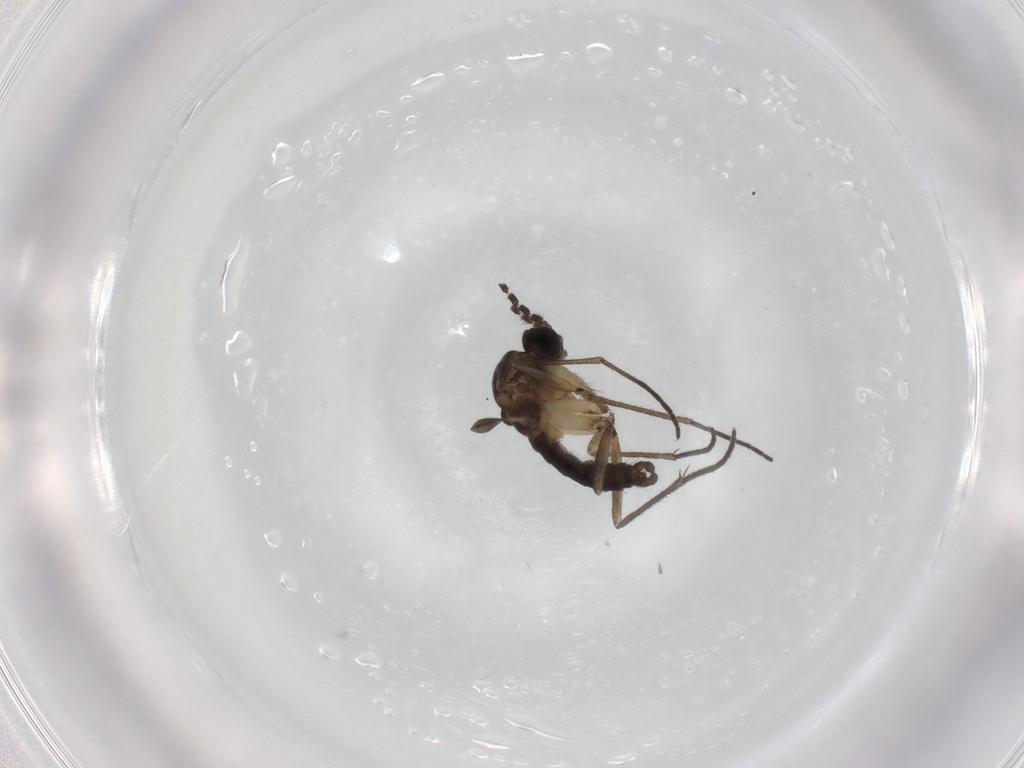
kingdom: Animalia
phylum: Arthropoda
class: Insecta
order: Diptera
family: Sciaridae
